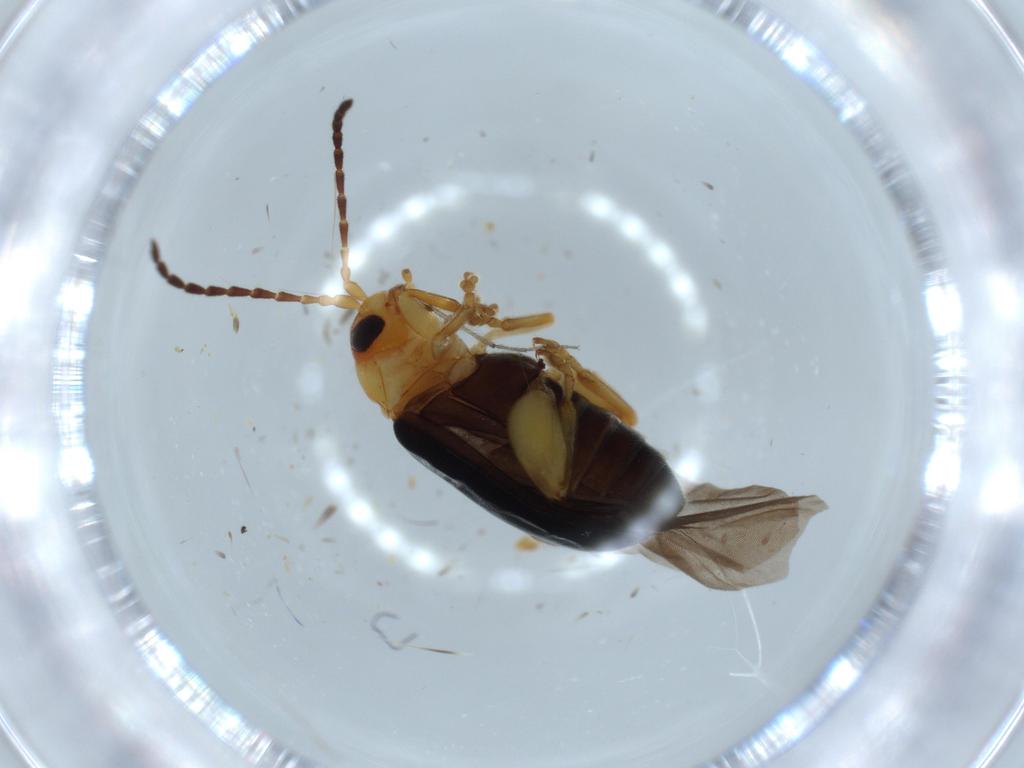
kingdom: Animalia
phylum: Arthropoda
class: Insecta
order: Coleoptera
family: Chrysomelidae
